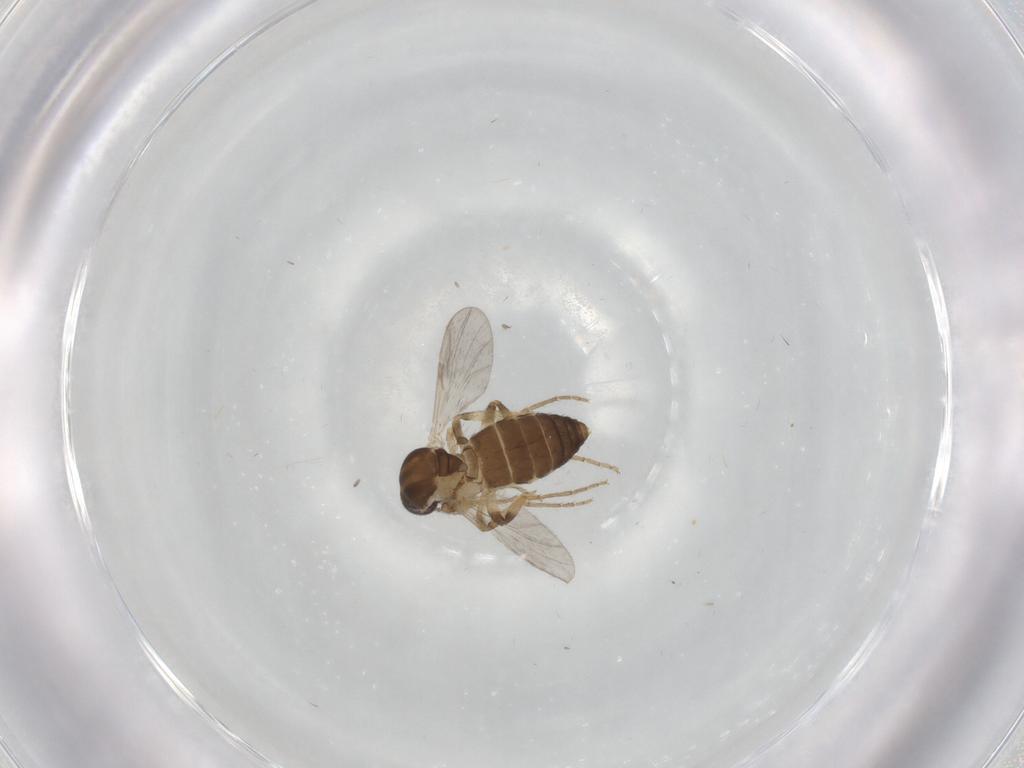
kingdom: Animalia
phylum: Arthropoda
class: Insecta
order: Diptera
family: Ceratopogonidae
